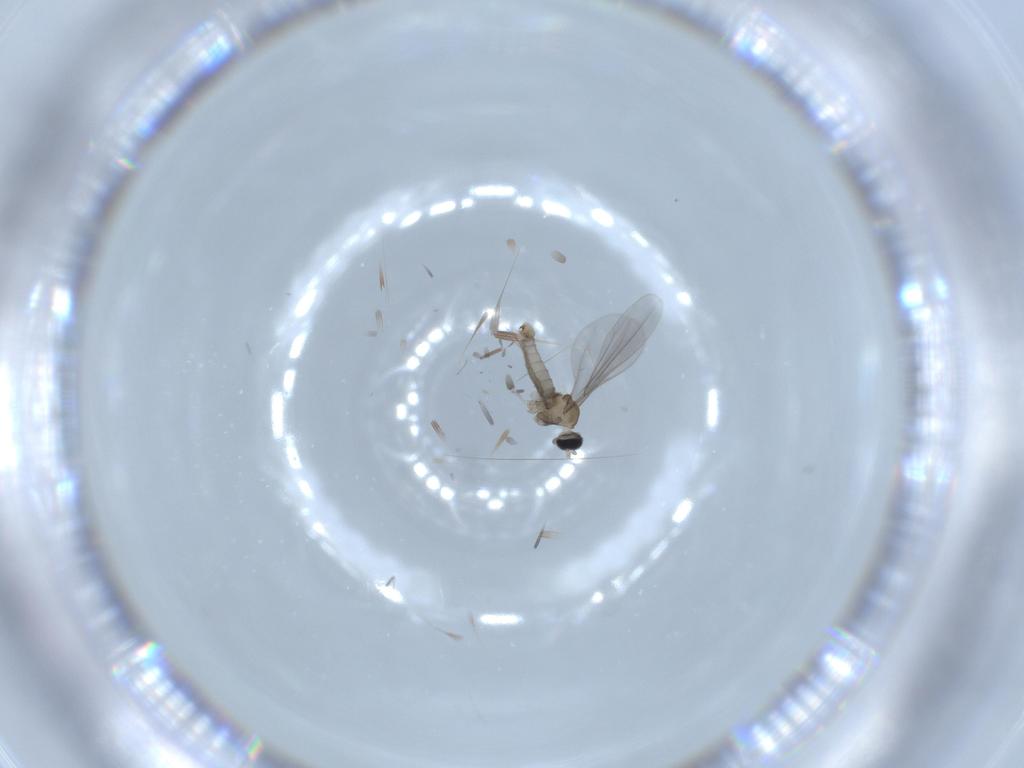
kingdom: Animalia
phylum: Arthropoda
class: Insecta
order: Diptera
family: Cecidomyiidae
